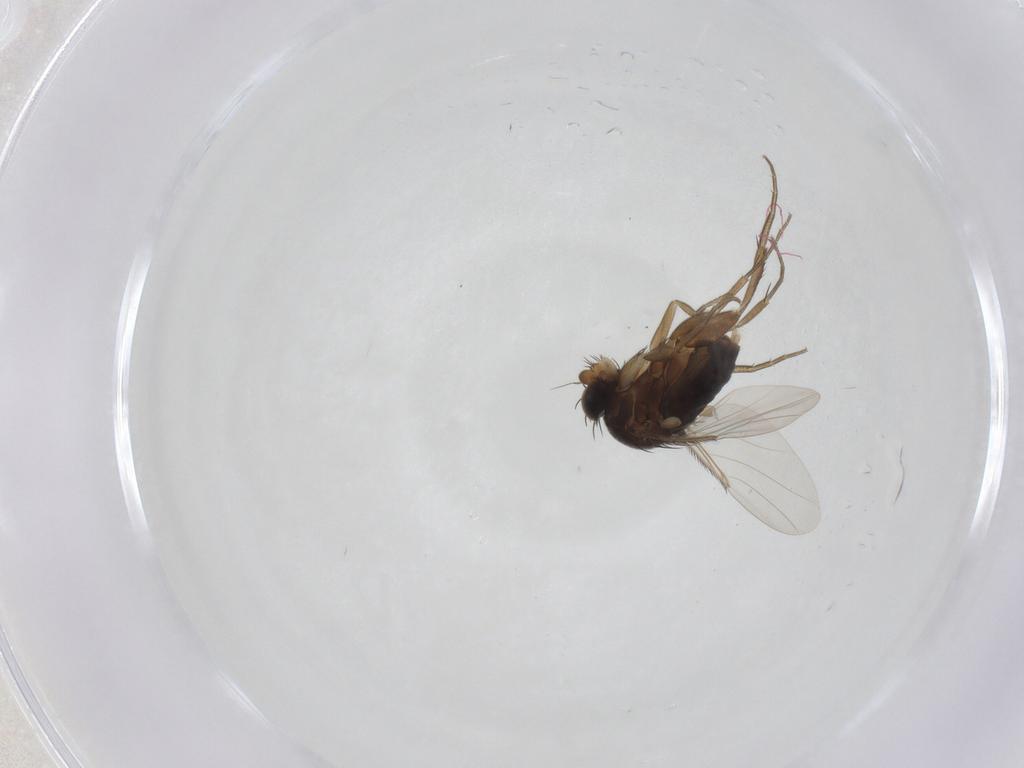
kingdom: Animalia
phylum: Arthropoda
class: Insecta
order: Diptera
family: Phoridae
